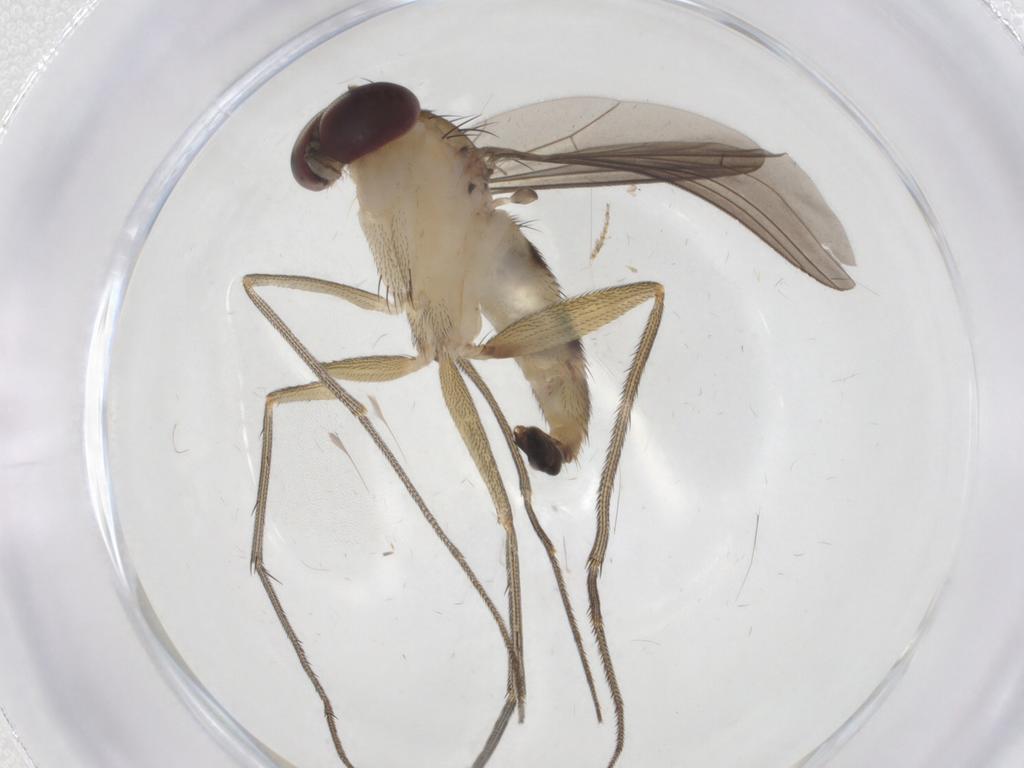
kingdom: Animalia
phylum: Arthropoda
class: Insecta
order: Diptera
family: Dolichopodidae
